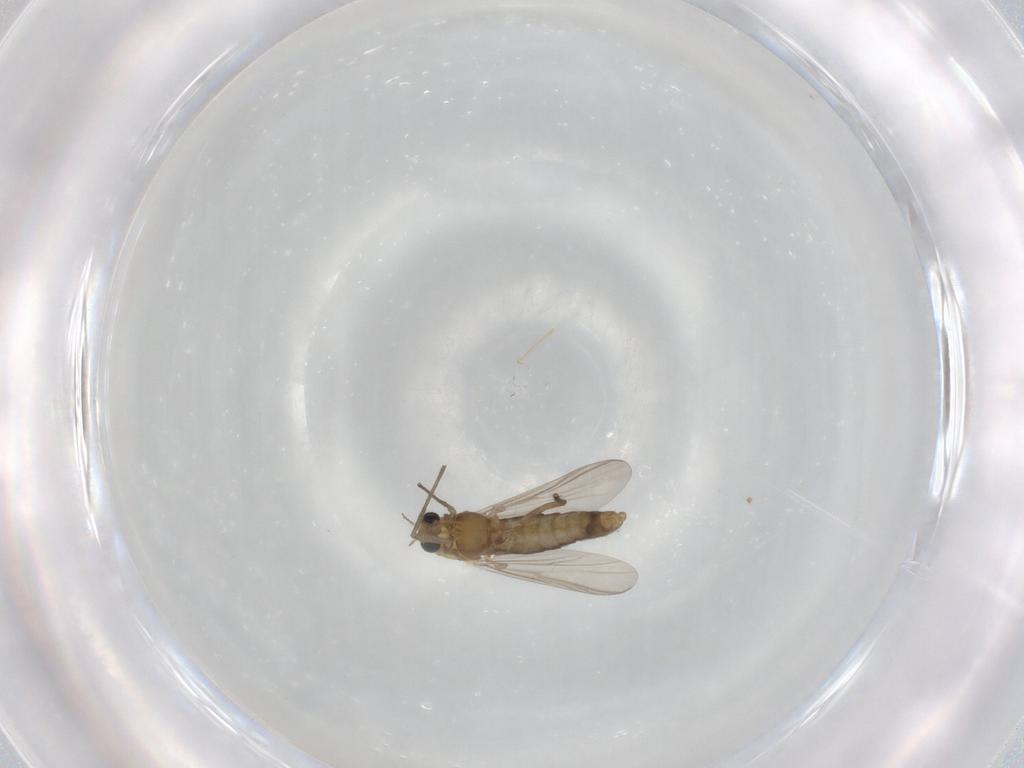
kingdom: Animalia
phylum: Arthropoda
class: Insecta
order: Diptera
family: Chironomidae
